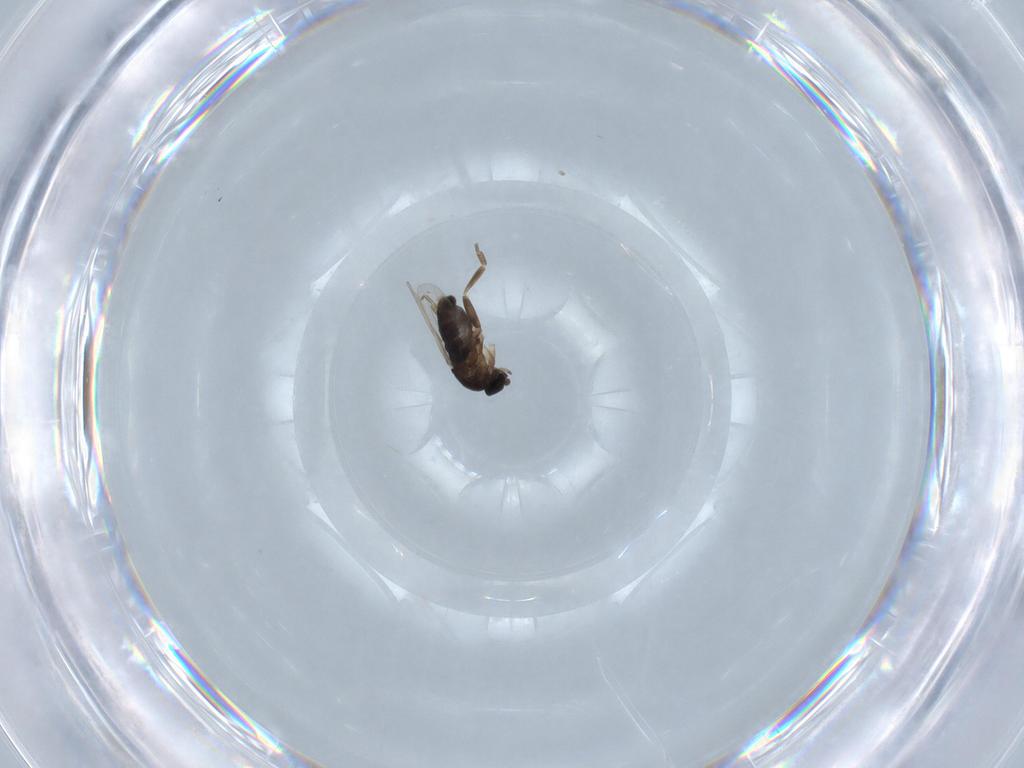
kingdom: Animalia
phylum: Arthropoda
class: Insecta
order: Diptera
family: Phoridae
